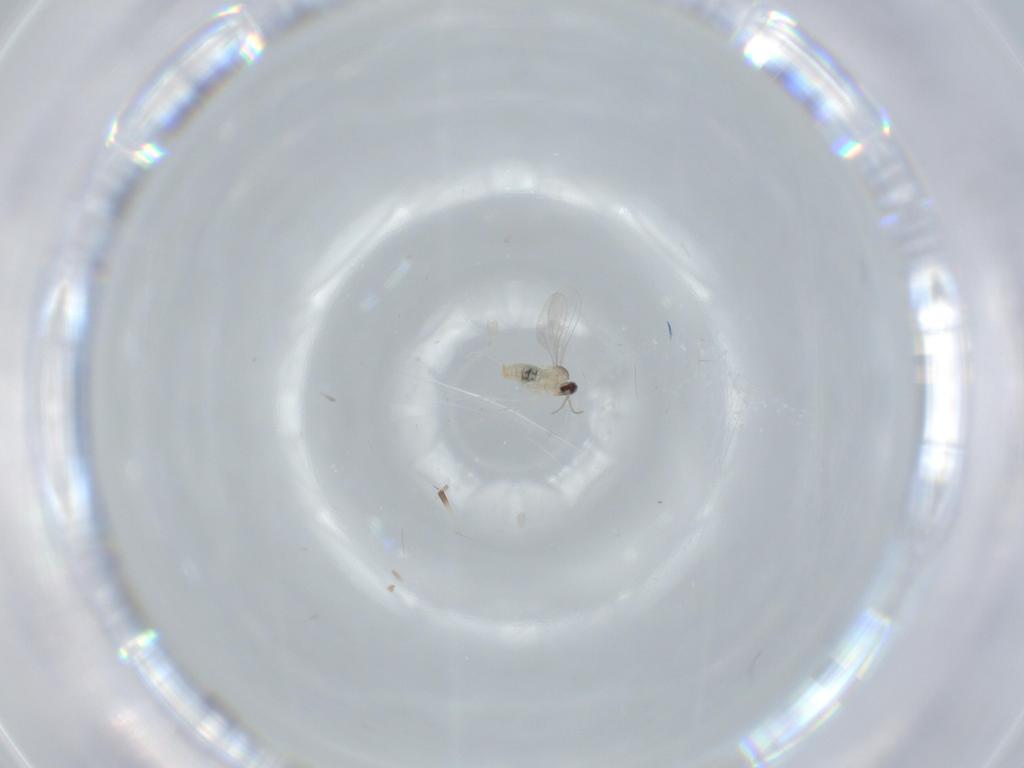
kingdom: Animalia
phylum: Arthropoda
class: Insecta
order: Diptera
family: Cecidomyiidae
